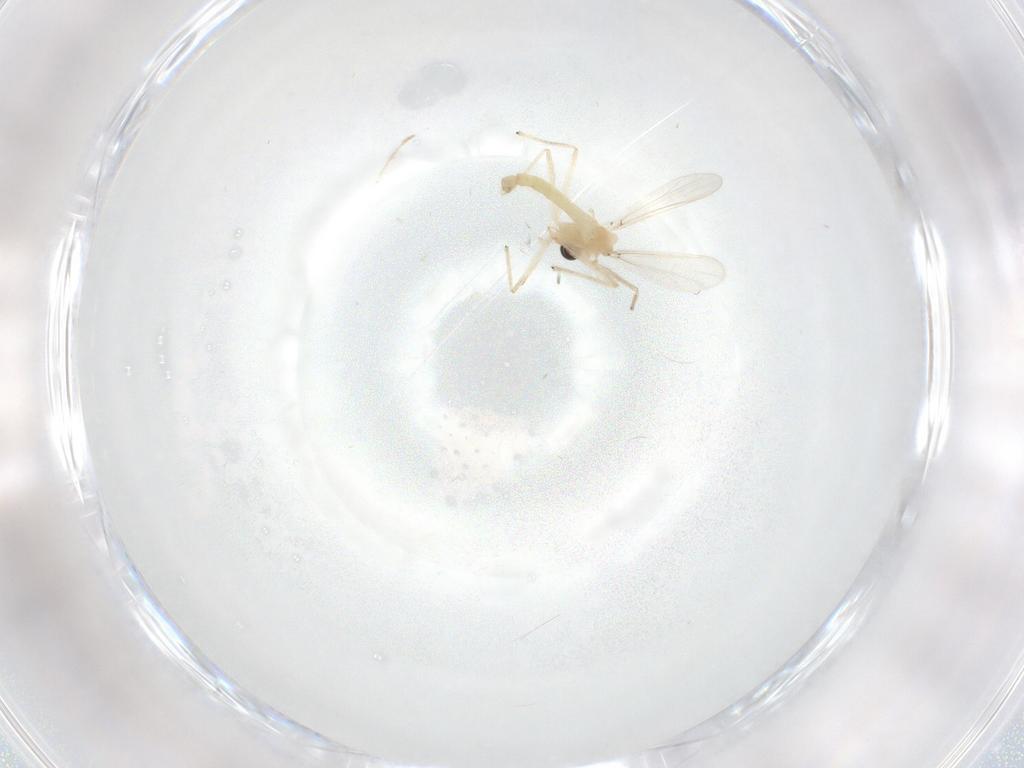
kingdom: Animalia
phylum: Arthropoda
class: Insecta
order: Diptera
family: Chironomidae
